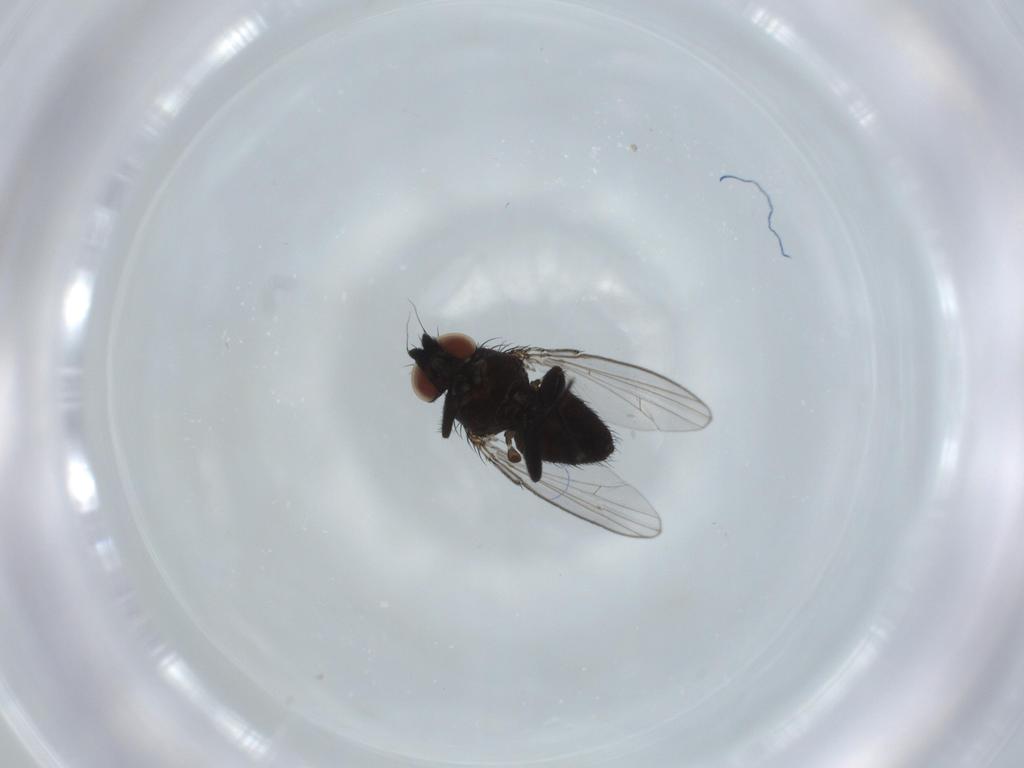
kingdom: Animalia
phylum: Arthropoda
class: Insecta
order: Diptera
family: Milichiidae
